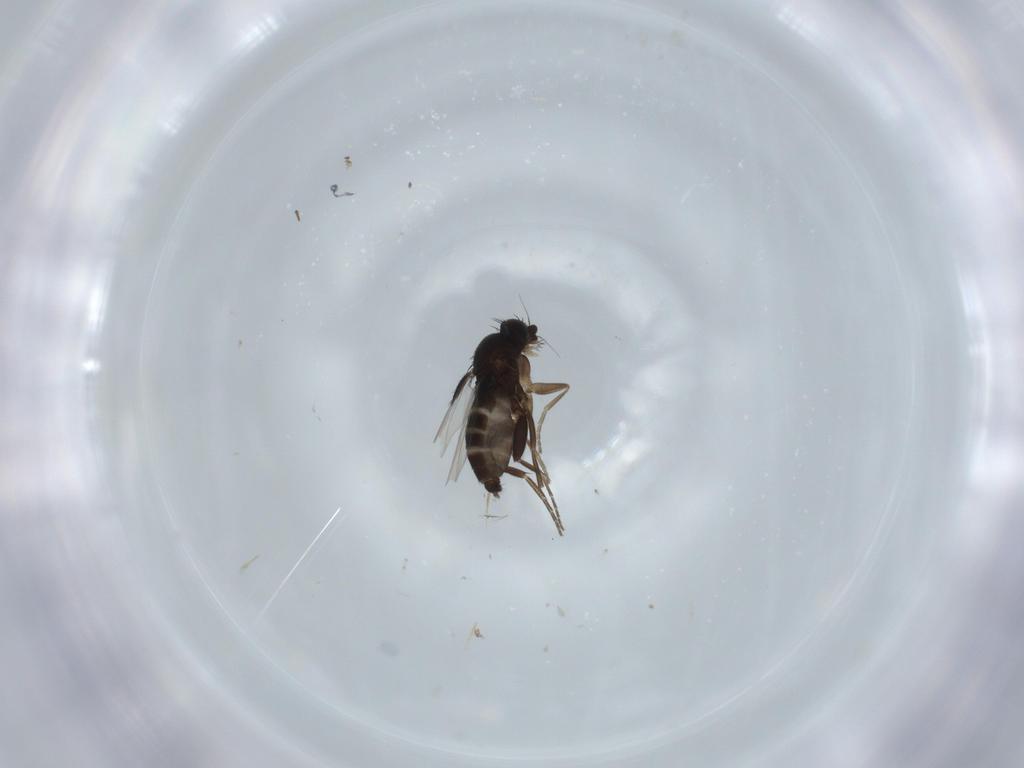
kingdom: Animalia
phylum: Arthropoda
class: Insecta
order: Diptera
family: Phoridae
